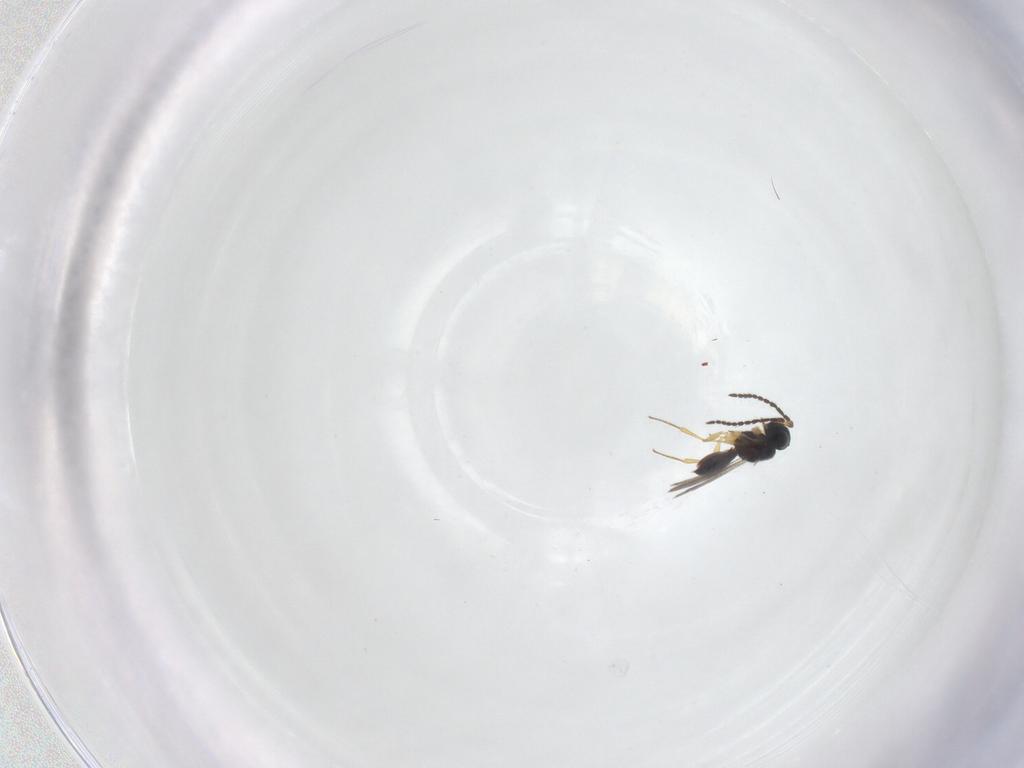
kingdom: Animalia
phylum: Arthropoda
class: Insecta
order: Hymenoptera
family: Scelionidae
